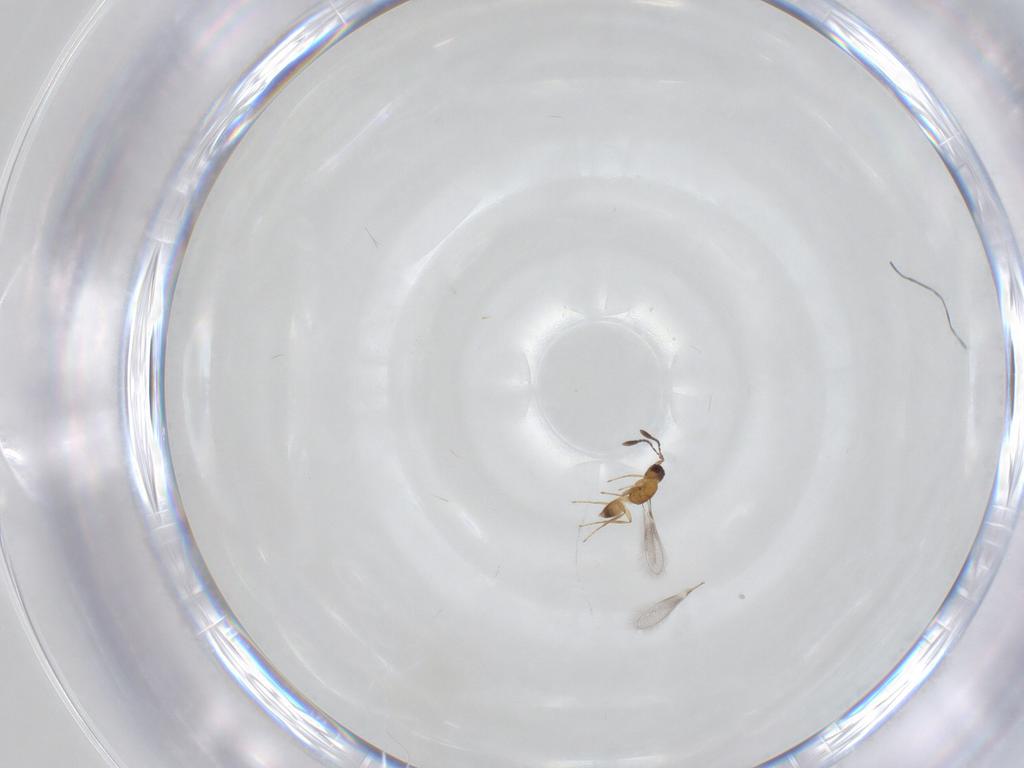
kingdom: Animalia
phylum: Arthropoda
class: Insecta
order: Hymenoptera
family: Mymaridae
